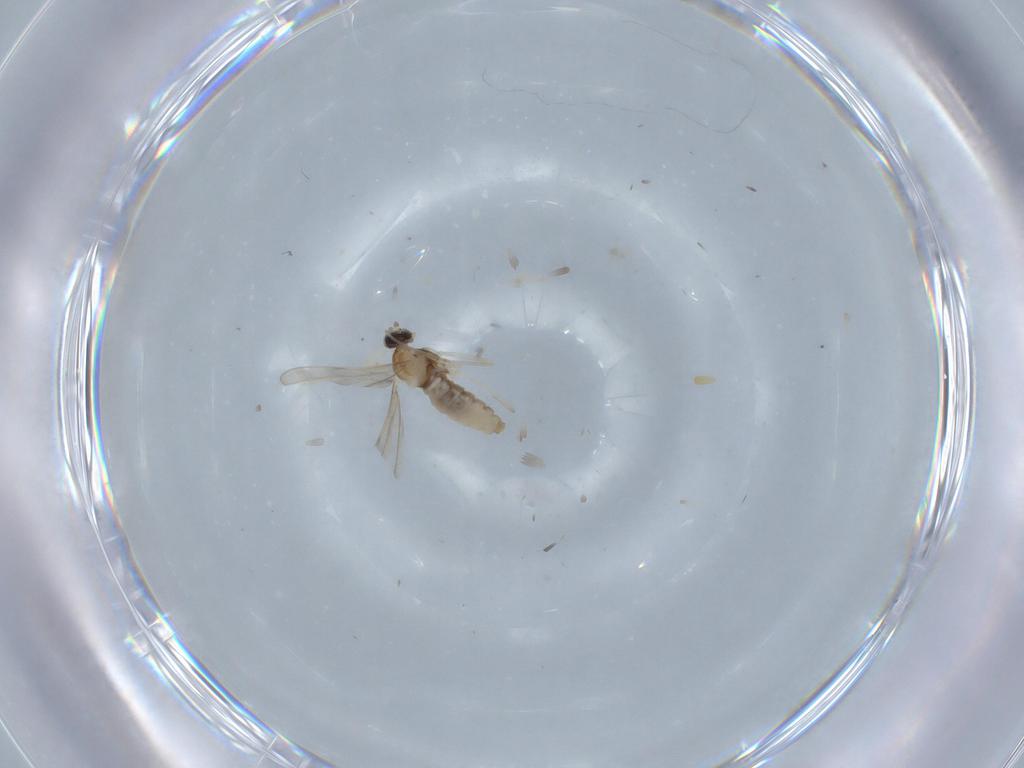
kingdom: Animalia
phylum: Arthropoda
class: Insecta
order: Diptera
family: Cecidomyiidae
